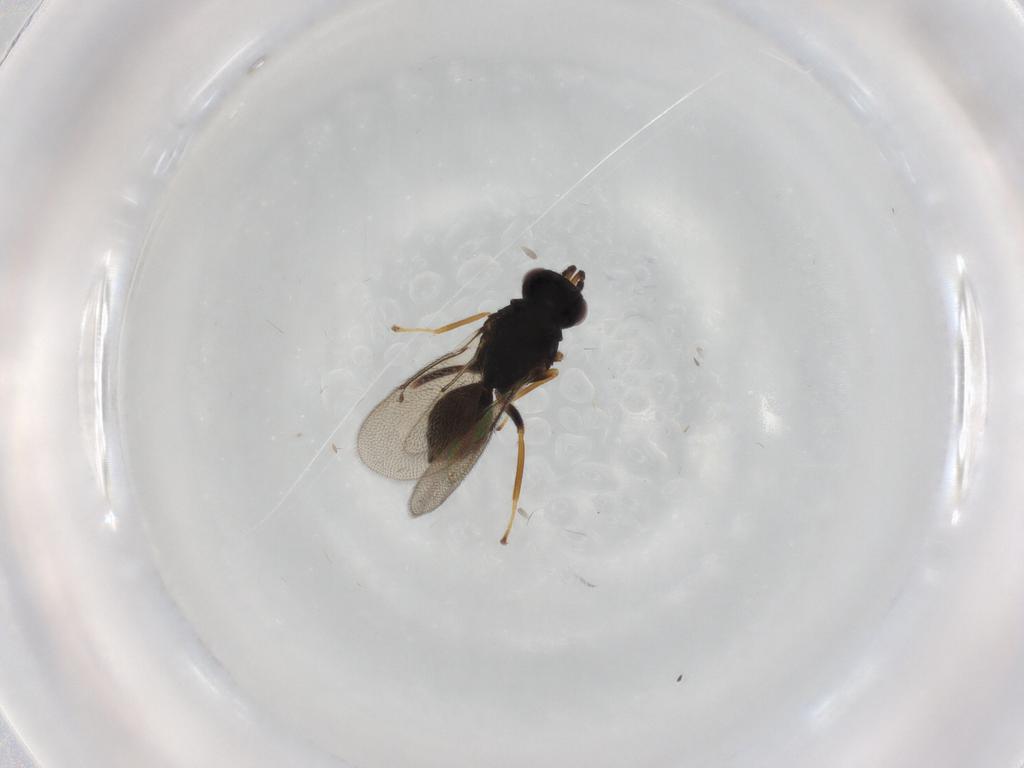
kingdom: Animalia
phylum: Arthropoda
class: Insecta
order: Hymenoptera
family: Eulophidae
